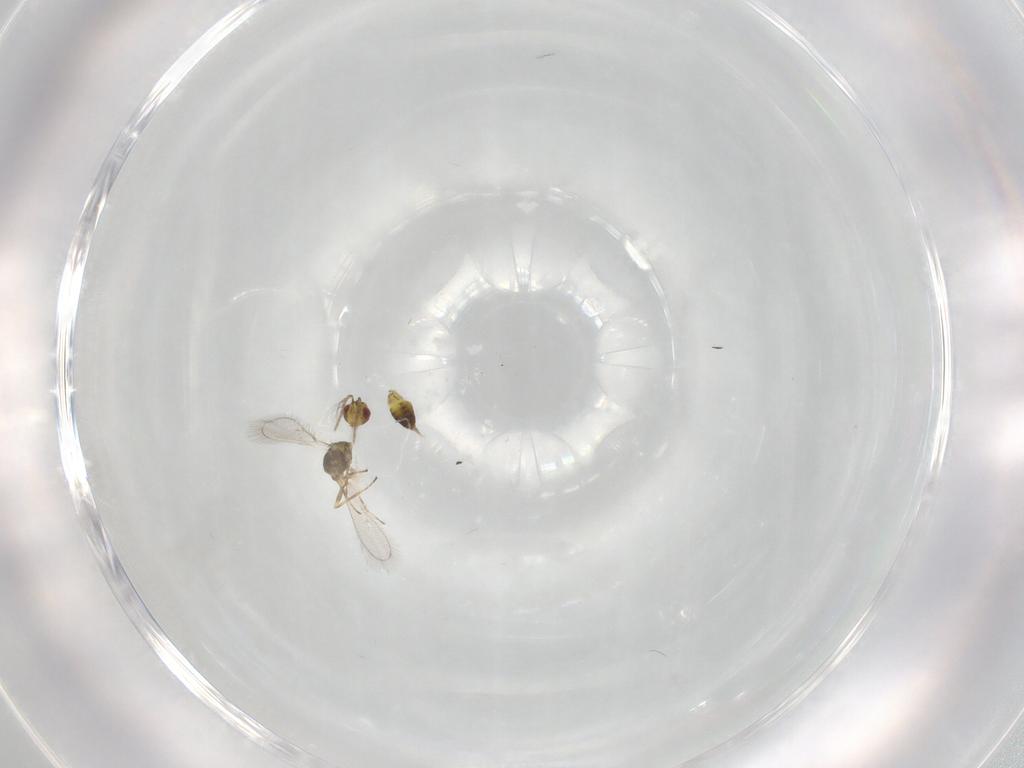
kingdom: Animalia
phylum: Arthropoda
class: Insecta
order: Hymenoptera
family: Eulophidae
